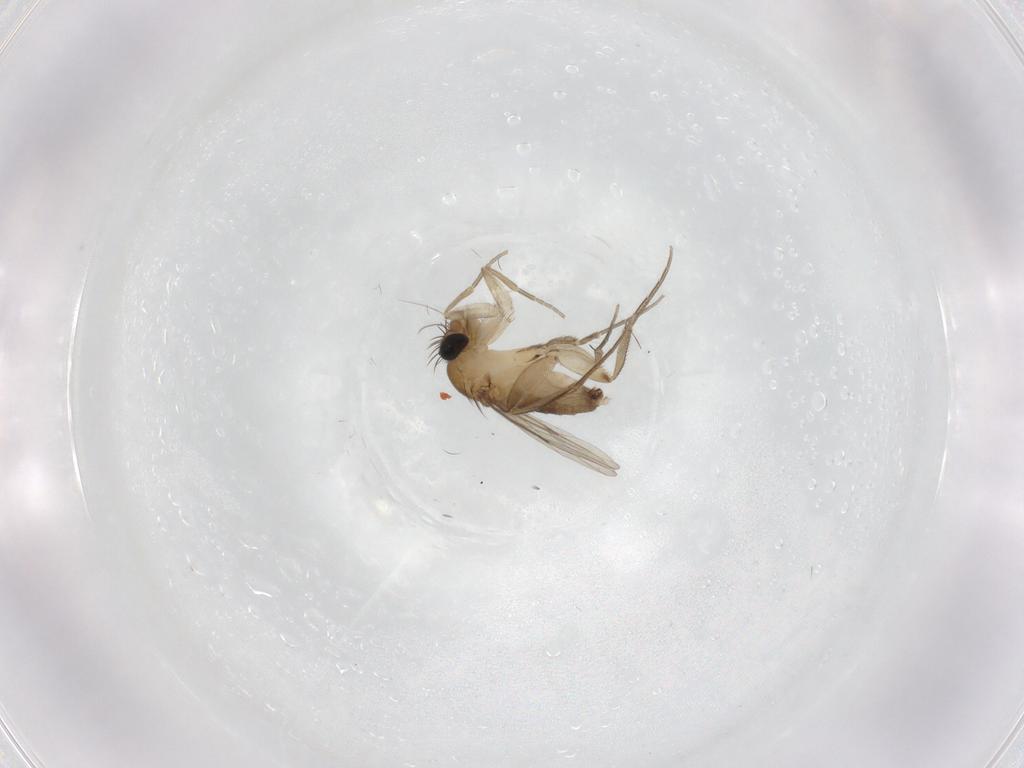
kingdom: Animalia
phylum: Arthropoda
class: Insecta
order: Diptera
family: Phoridae
